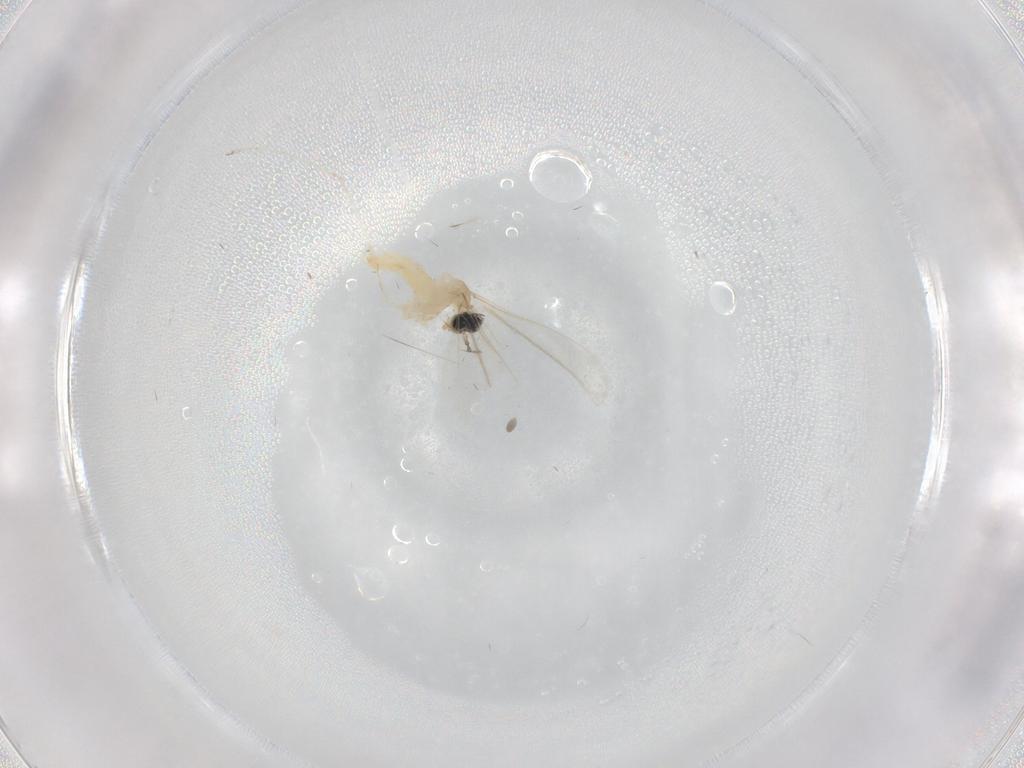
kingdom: Animalia
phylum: Arthropoda
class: Insecta
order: Diptera
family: Cecidomyiidae
